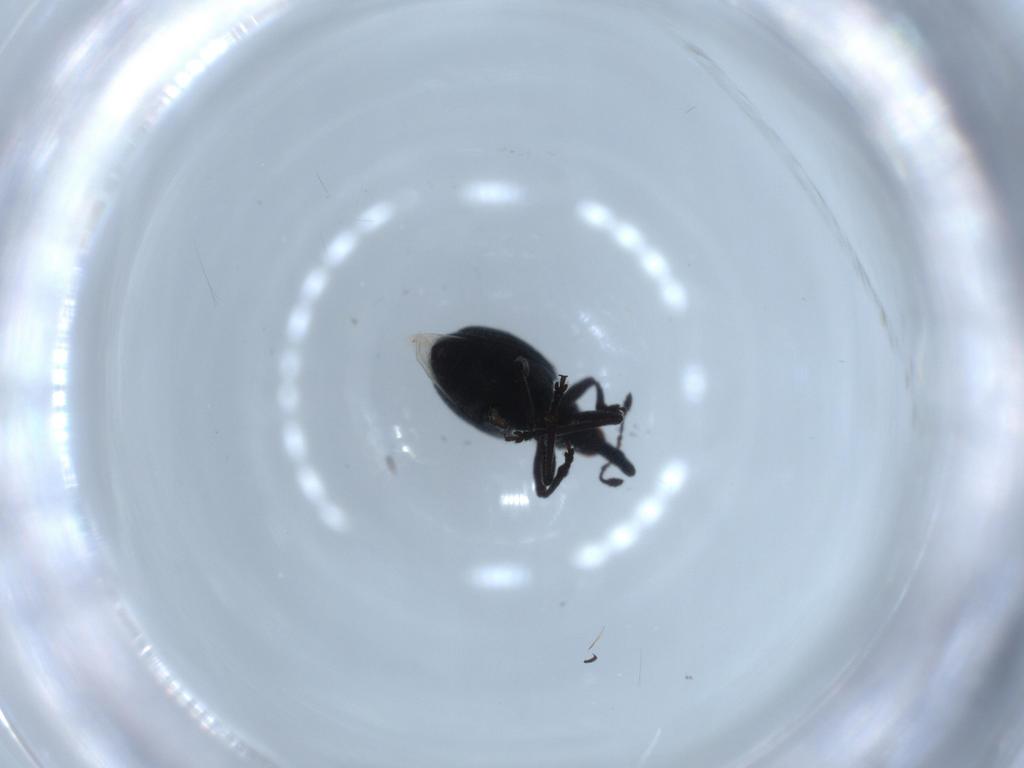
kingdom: Animalia
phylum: Arthropoda
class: Insecta
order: Coleoptera
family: Brentidae
